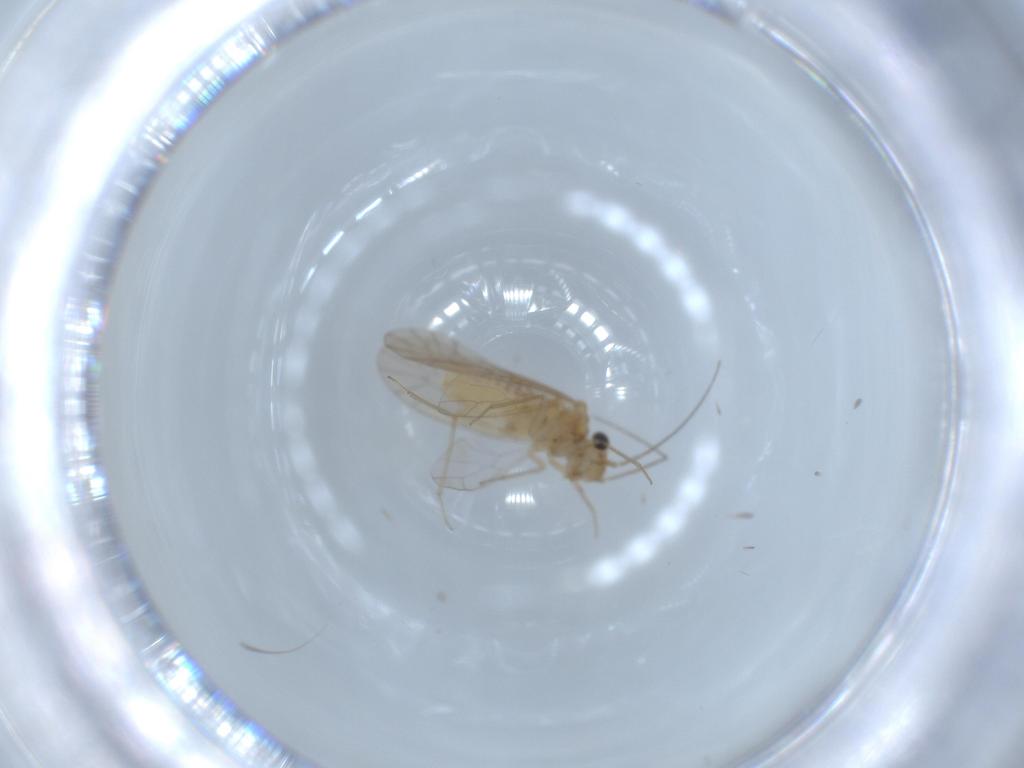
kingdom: Animalia
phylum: Arthropoda
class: Insecta
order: Psocodea
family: Lachesillidae
